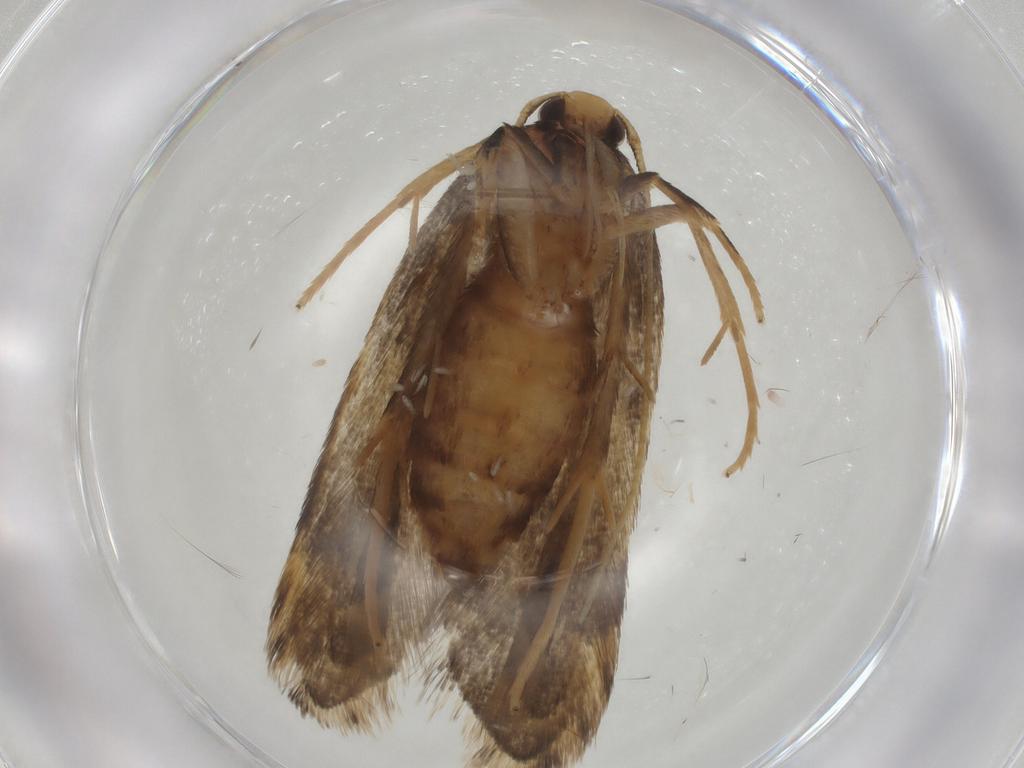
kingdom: Animalia
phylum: Arthropoda
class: Insecta
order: Lepidoptera
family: Lecithoceridae
